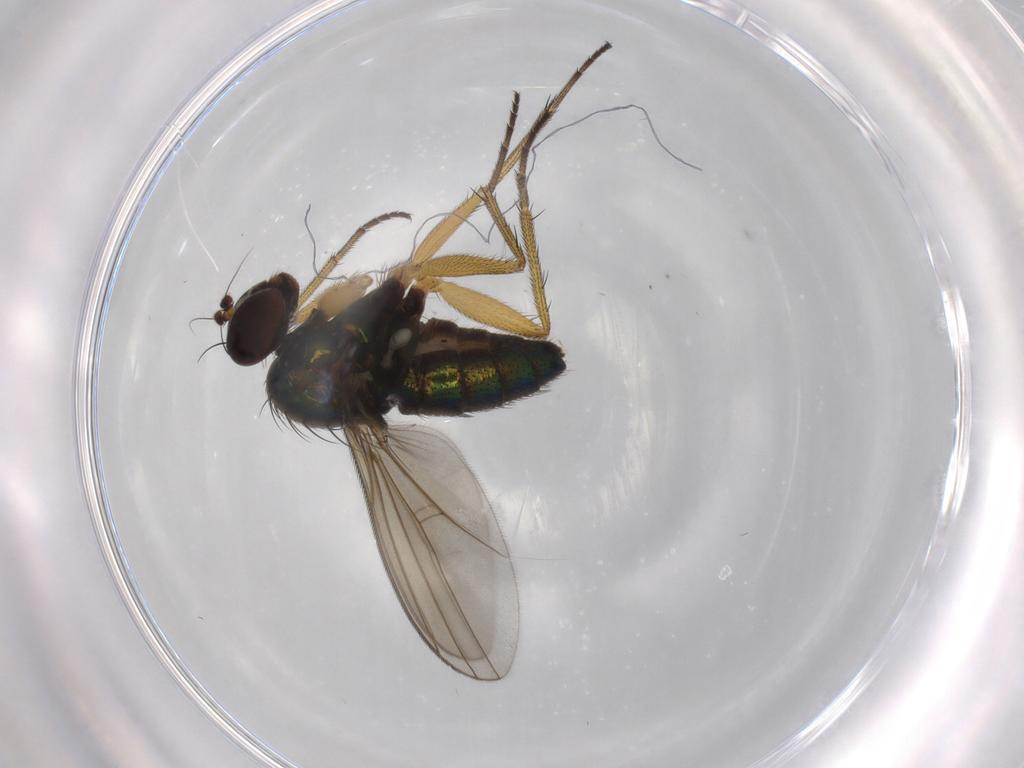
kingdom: Animalia
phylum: Arthropoda
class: Insecta
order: Diptera
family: Dolichopodidae
